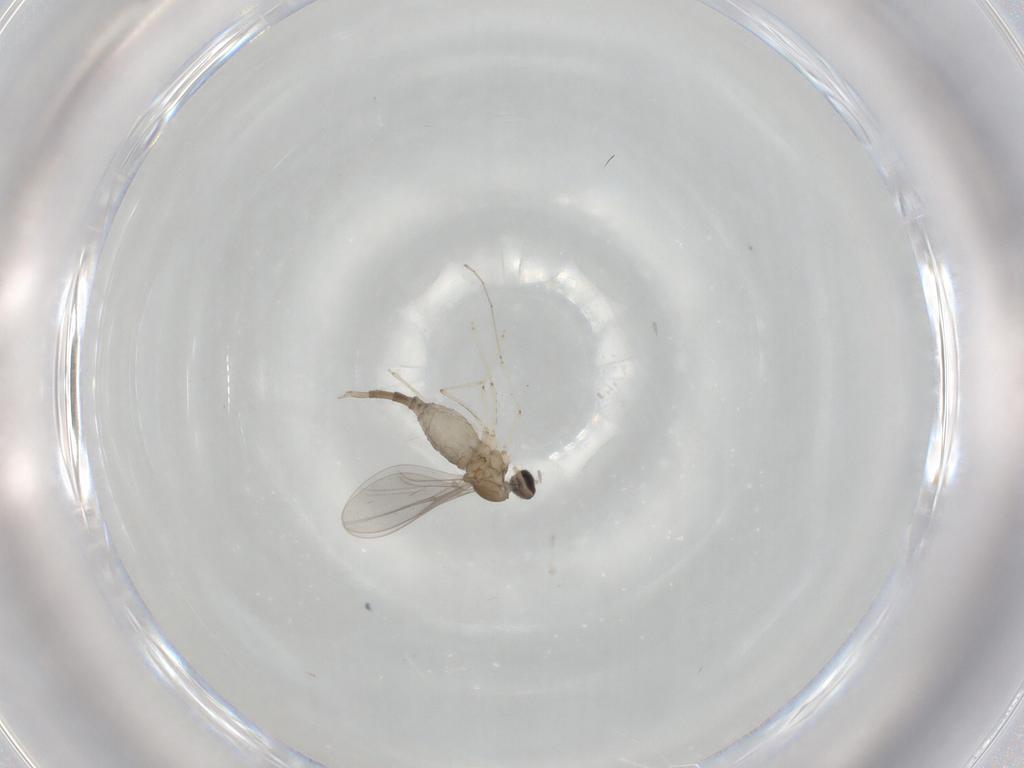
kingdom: Animalia
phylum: Arthropoda
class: Insecta
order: Diptera
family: Cecidomyiidae
